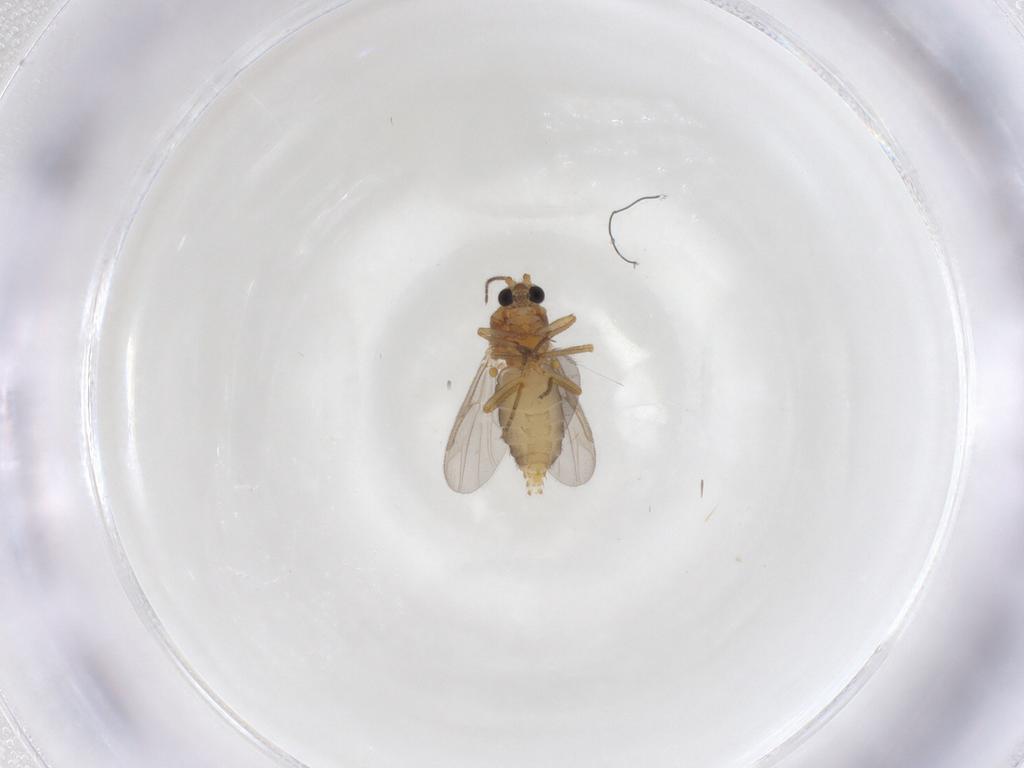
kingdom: Animalia
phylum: Arthropoda
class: Insecta
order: Diptera
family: Ceratopogonidae
